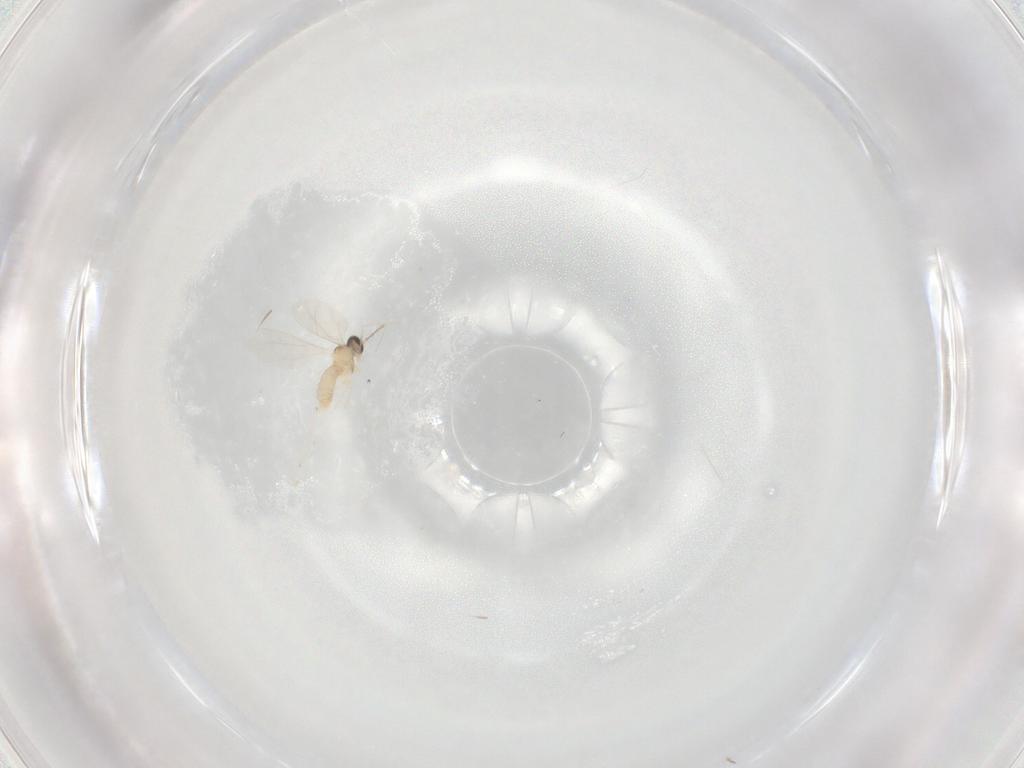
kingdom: Animalia
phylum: Arthropoda
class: Insecta
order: Diptera
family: Cecidomyiidae
